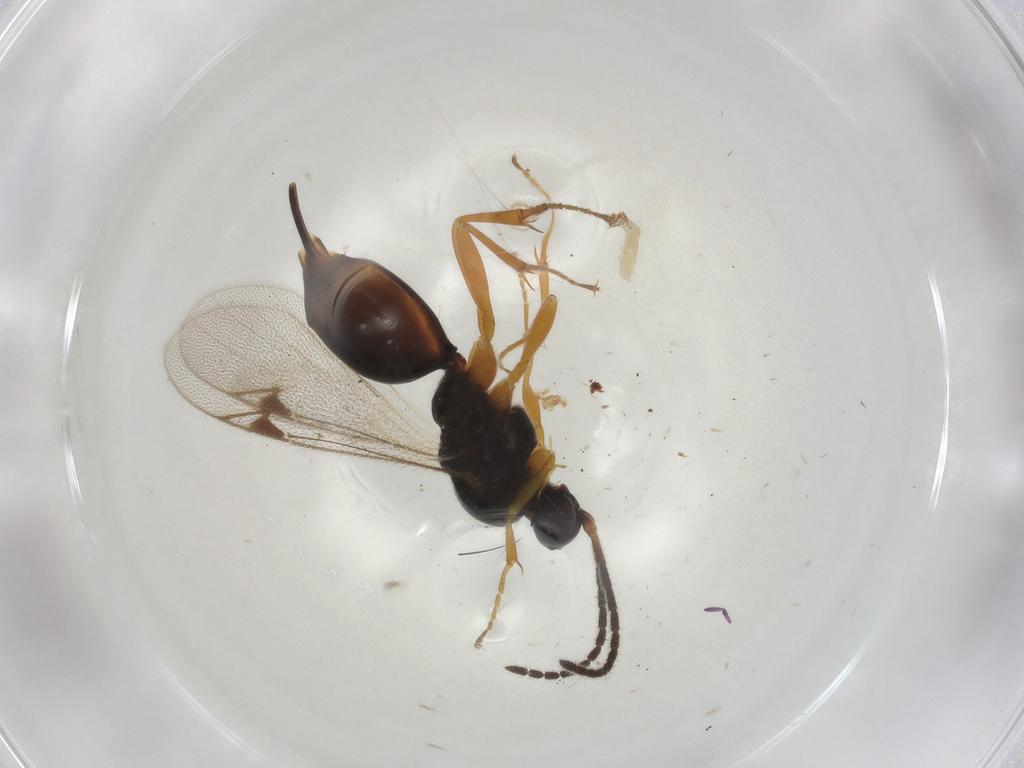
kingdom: Animalia
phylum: Arthropoda
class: Insecta
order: Hymenoptera
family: Proctotrupidae
